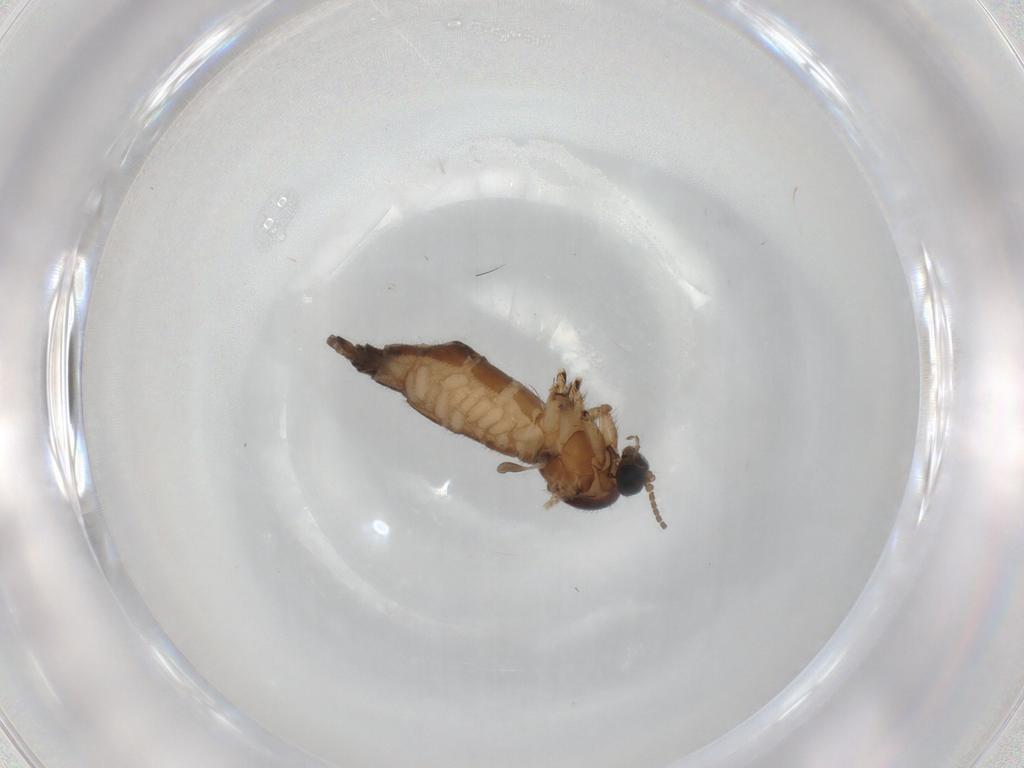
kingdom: Animalia
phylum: Arthropoda
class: Insecta
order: Diptera
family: Sciaridae
